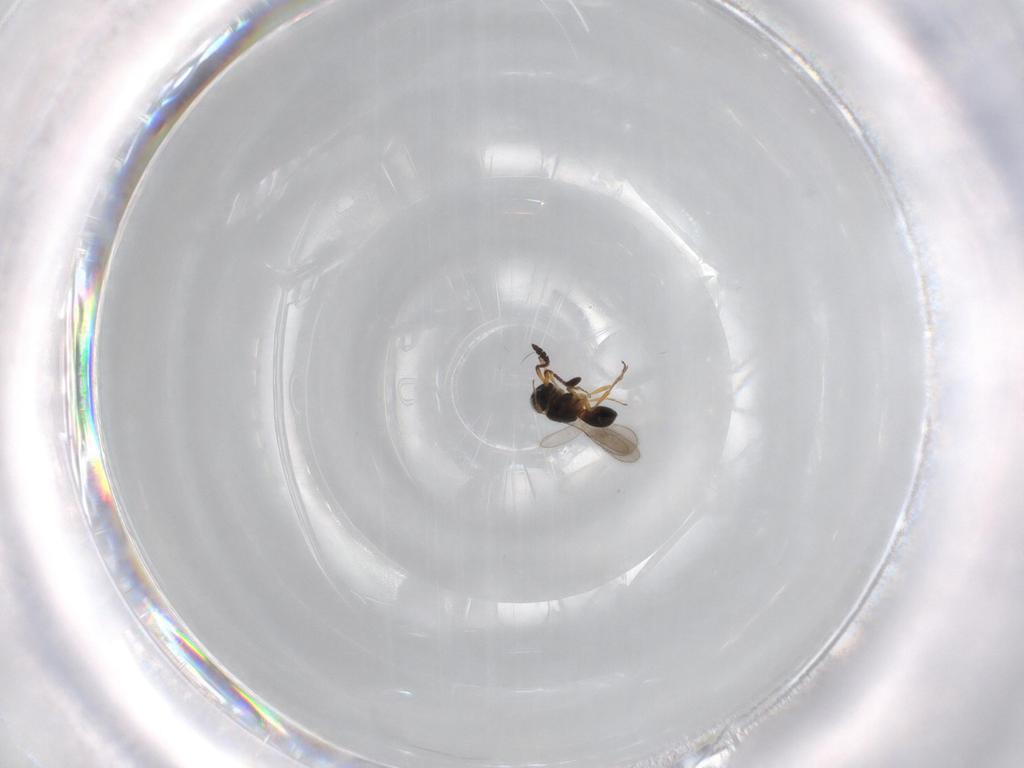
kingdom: Animalia
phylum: Arthropoda
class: Insecta
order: Hymenoptera
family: Scelionidae
